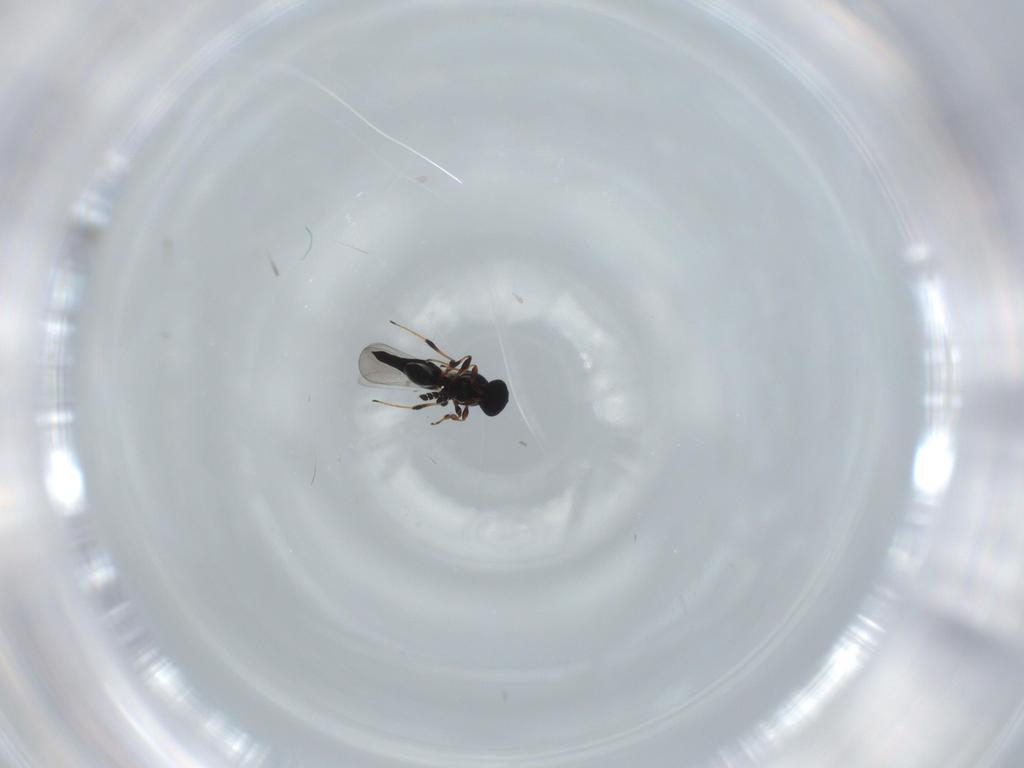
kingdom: Animalia
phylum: Arthropoda
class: Insecta
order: Hymenoptera
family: Platygastridae
